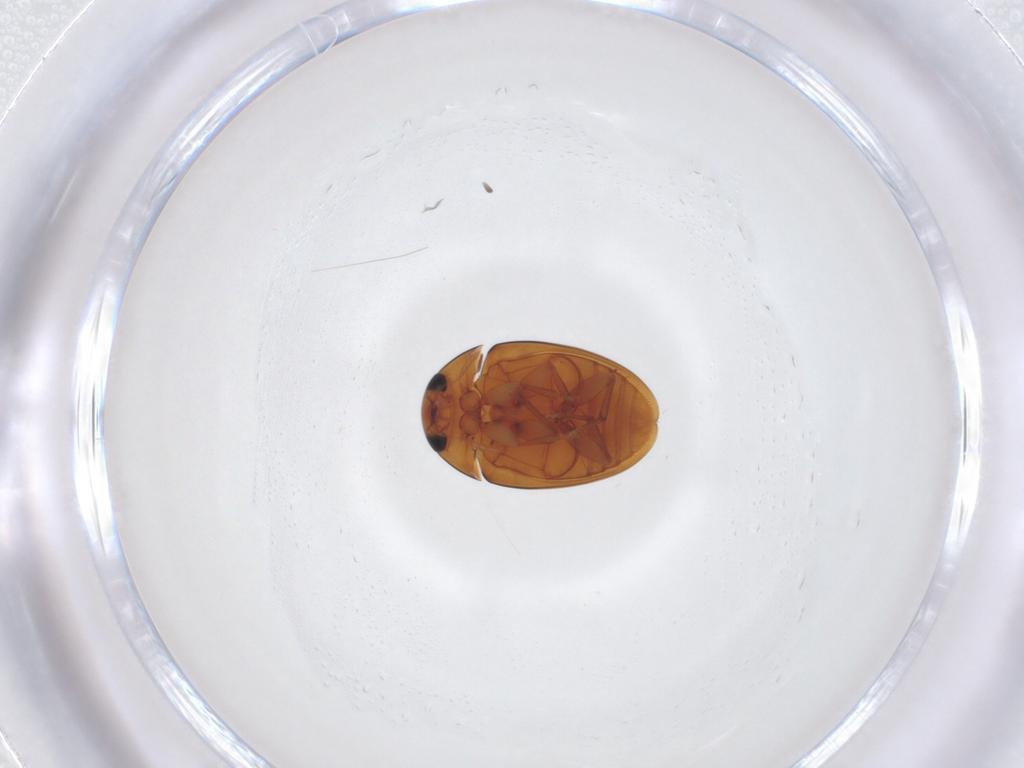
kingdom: Animalia
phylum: Arthropoda
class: Insecta
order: Coleoptera
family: Phalacridae
